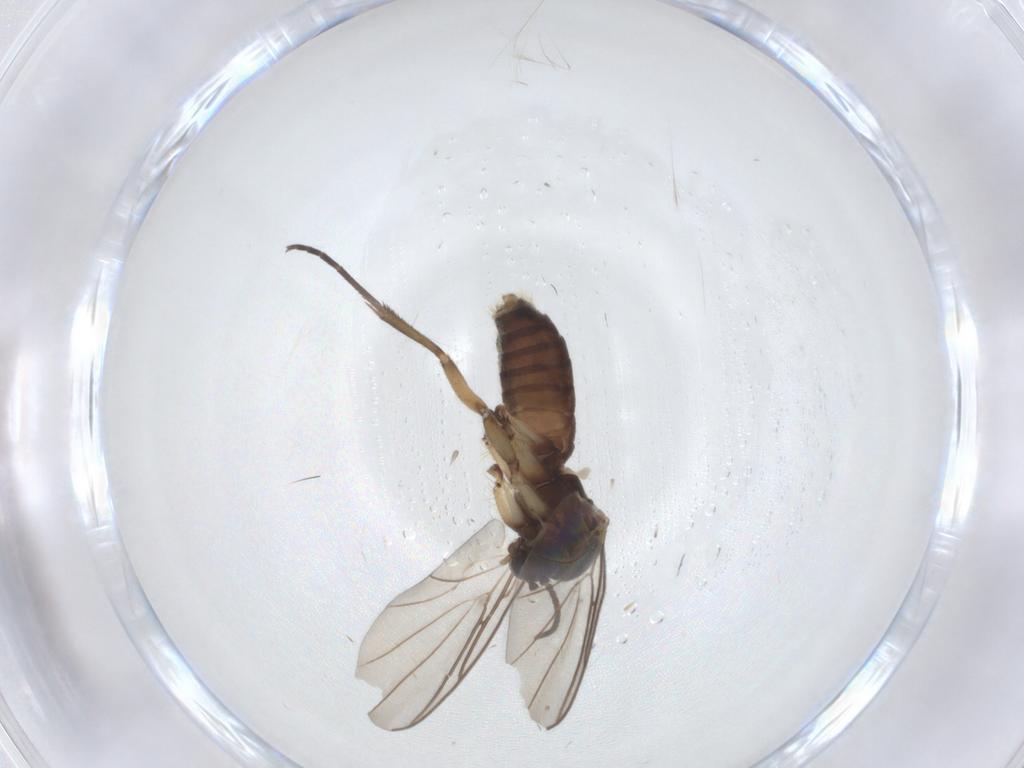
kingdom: Animalia
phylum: Arthropoda
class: Insecta
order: Diptera
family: Mycetophilidae
